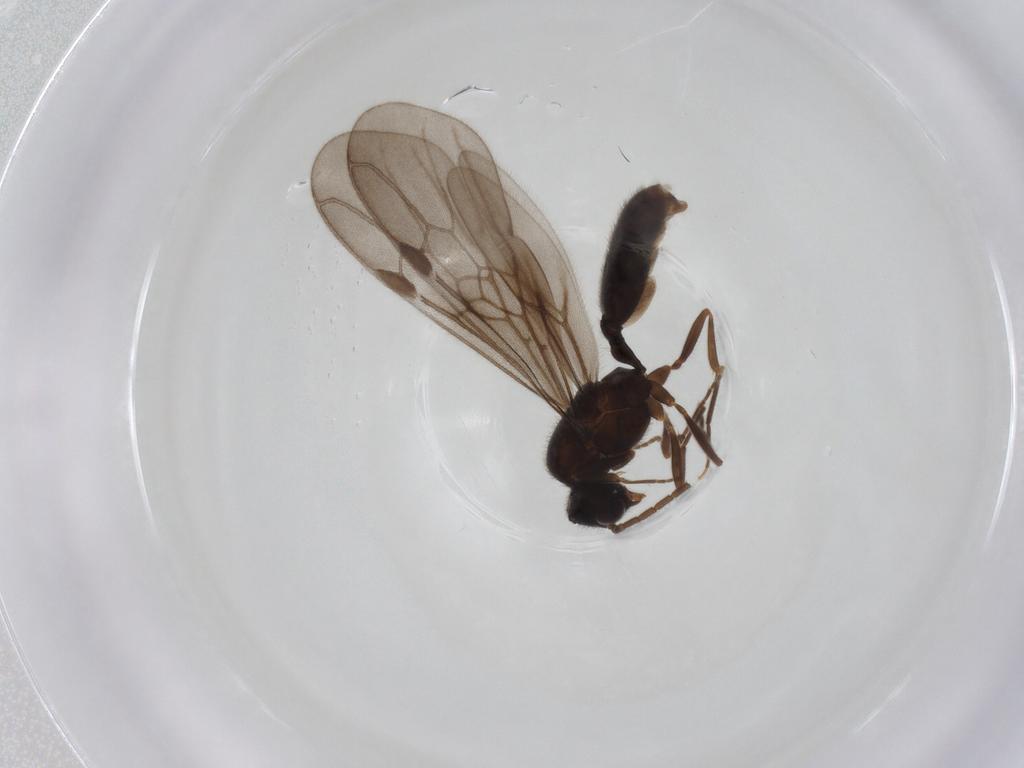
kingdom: Animalia
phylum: Arthropoda
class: Insecta
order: Hymenoptera
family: Formicidae
